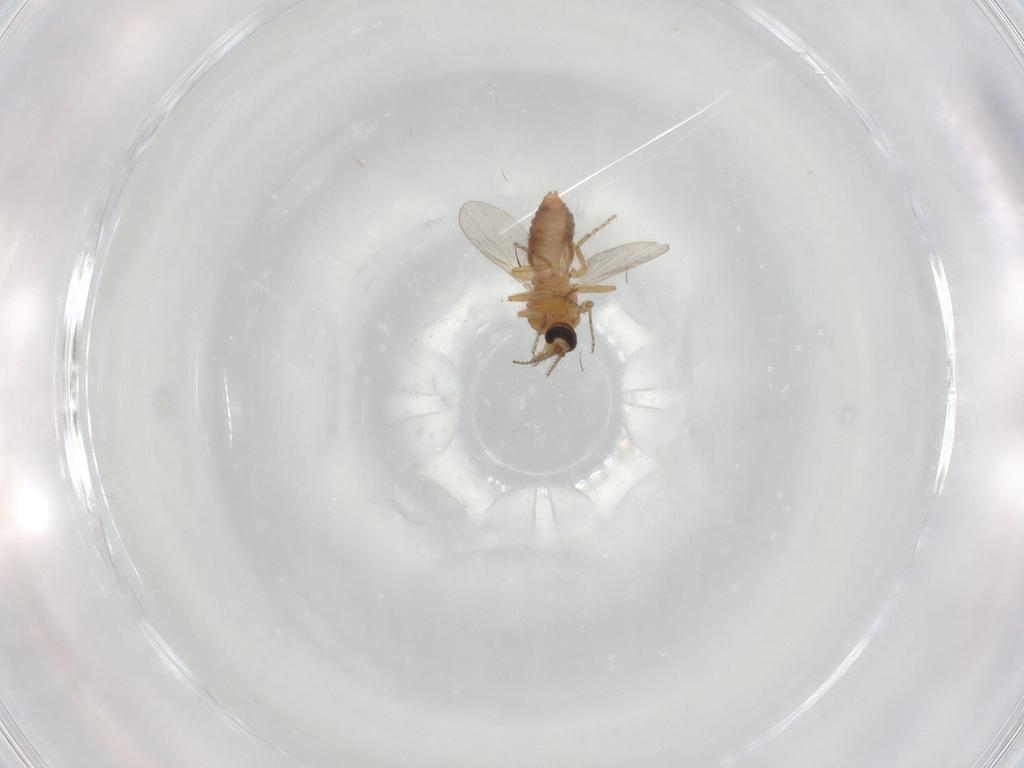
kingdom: Animalia
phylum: Arthropoda
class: Insecta
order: Diptera
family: Ceratopogonidae
